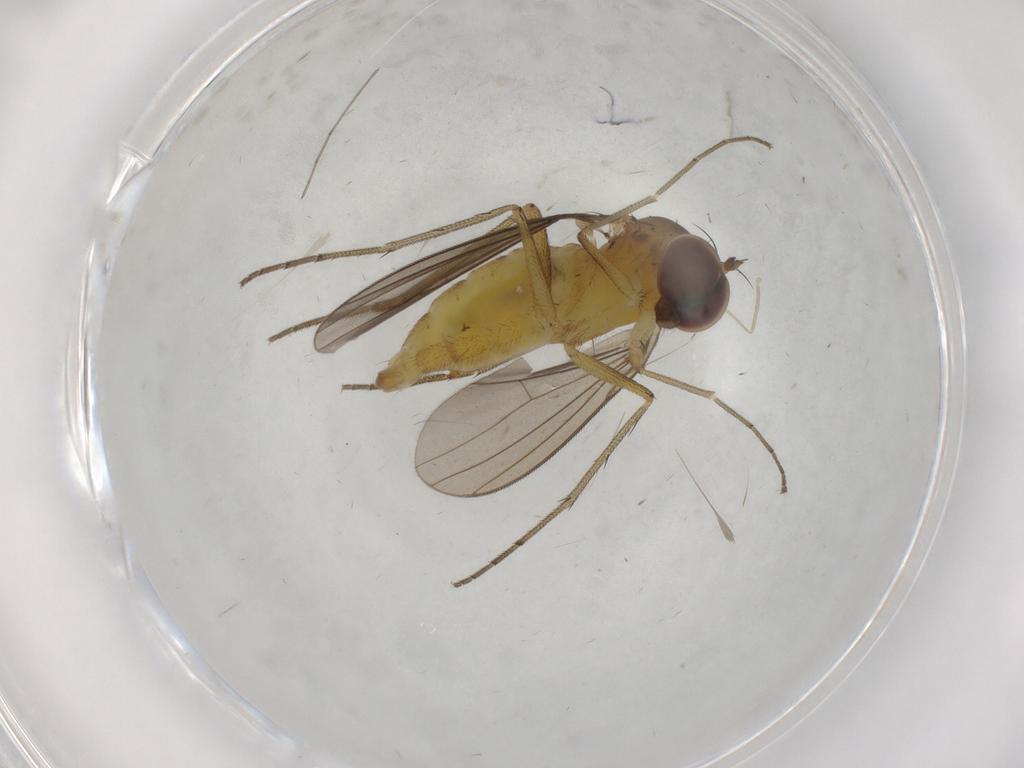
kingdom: Animalia
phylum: Arthropoda
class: Insecta
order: Diptera
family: Dolichopodidae
